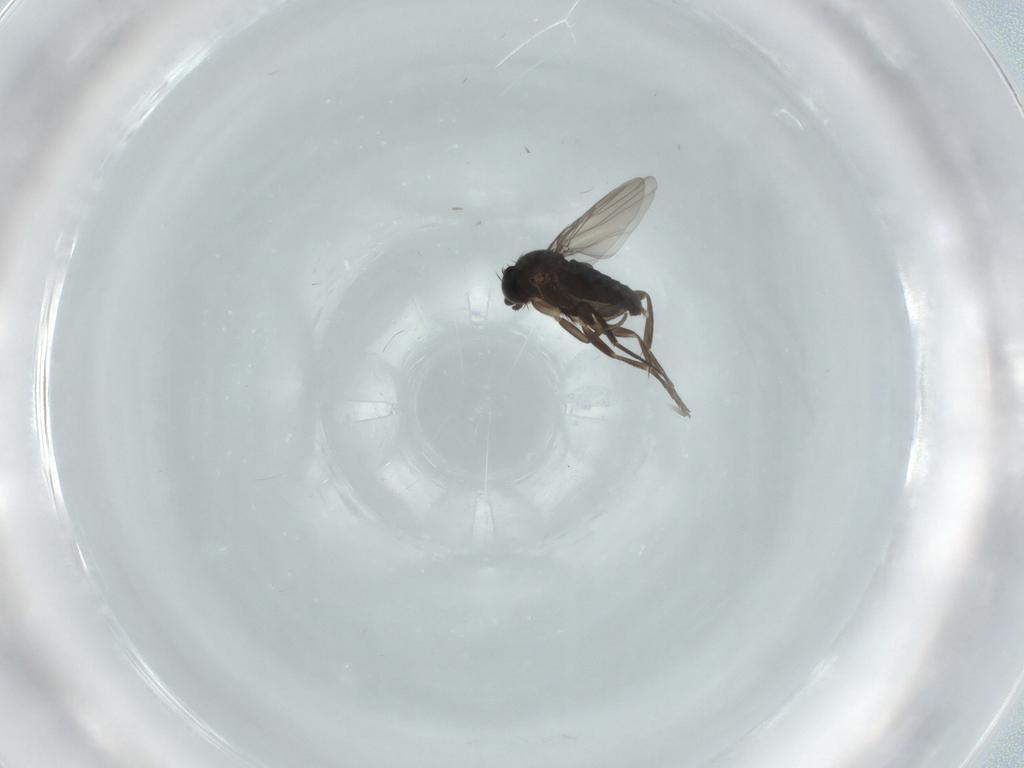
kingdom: Animalia
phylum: Arthropoda
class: Insecta
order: Diptera
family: Phoridae
